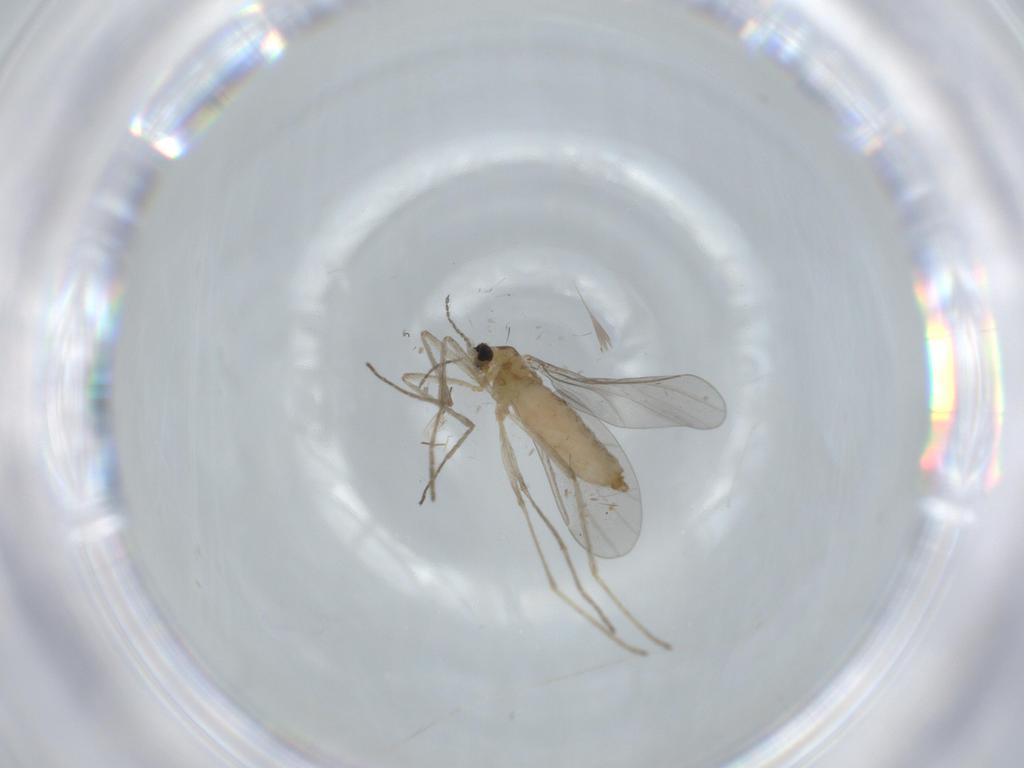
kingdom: Animalia
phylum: Arthropoda
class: Insecta
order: Diptera
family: Cecidomyiidae
